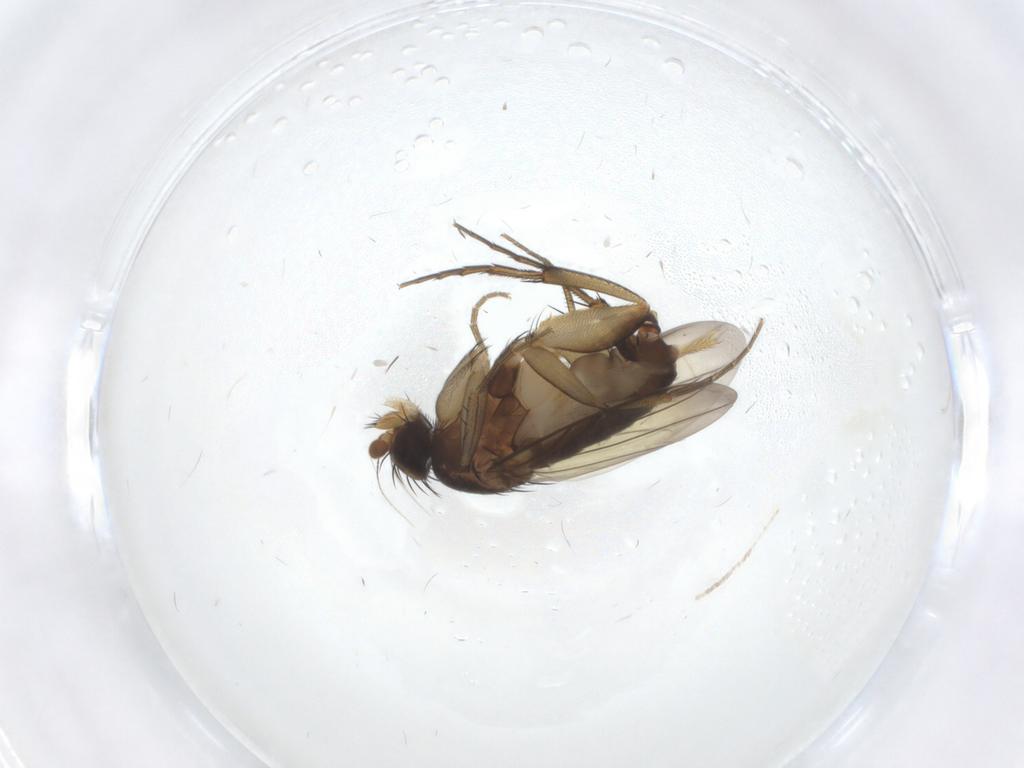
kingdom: Animalia
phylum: Arthropoda
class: Insecta
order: Diptera
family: Phoridae
